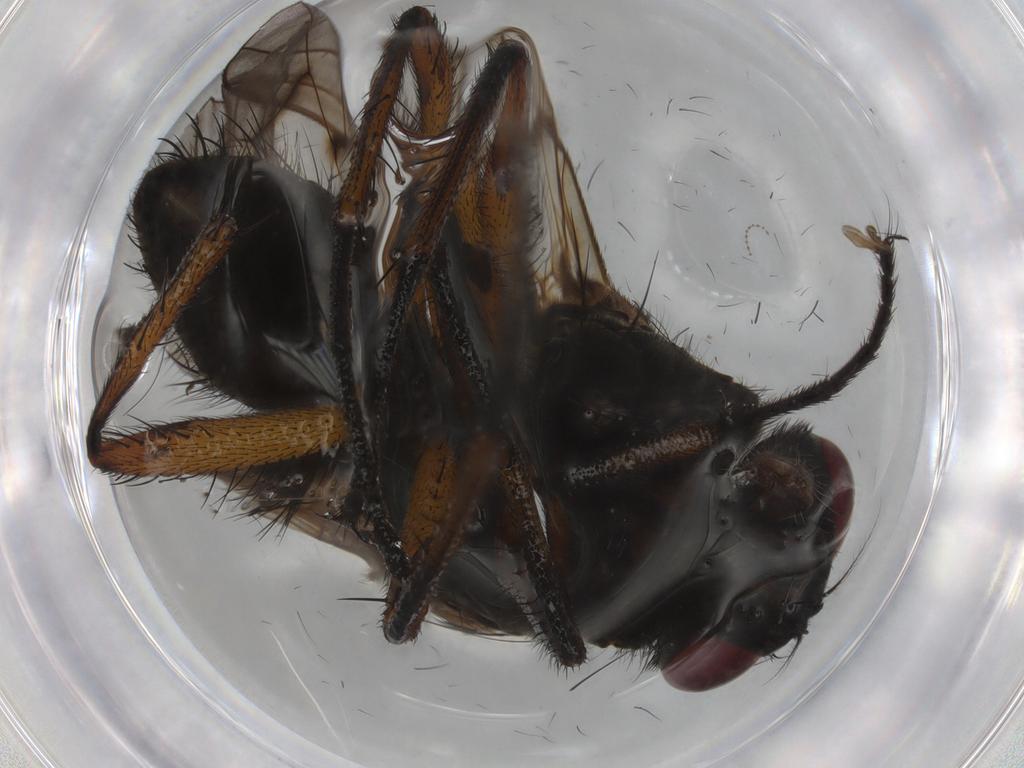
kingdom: Animalia
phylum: Arthropoda
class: Insecta
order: Diptera
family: Muscidae
